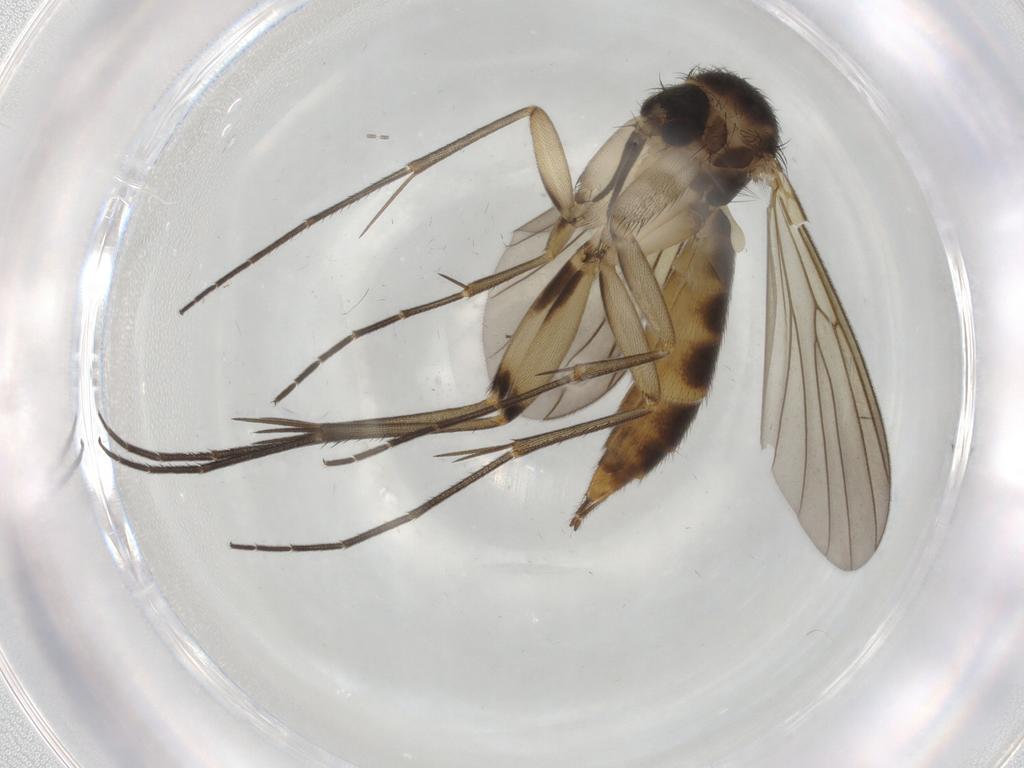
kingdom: Animalia
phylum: Arthropoda
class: Insecta
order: Diptera
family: Mycetophilidae
